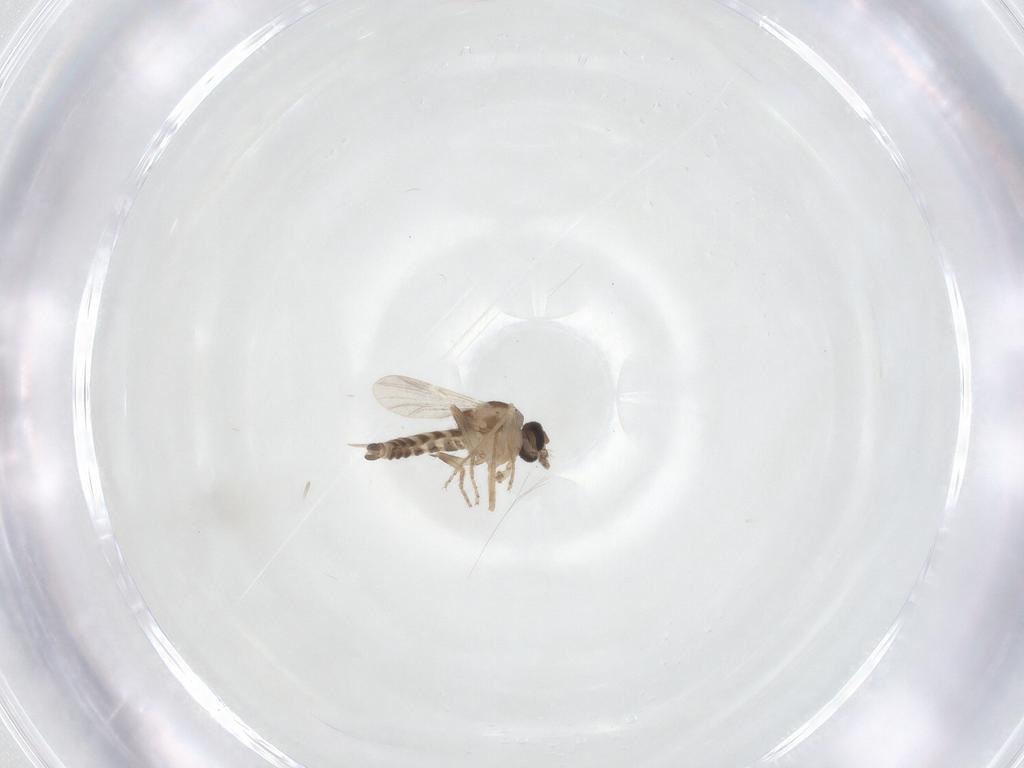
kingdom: Animalia
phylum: Arthropoda
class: Insecta
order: Diptera
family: Ceratopogonidae
